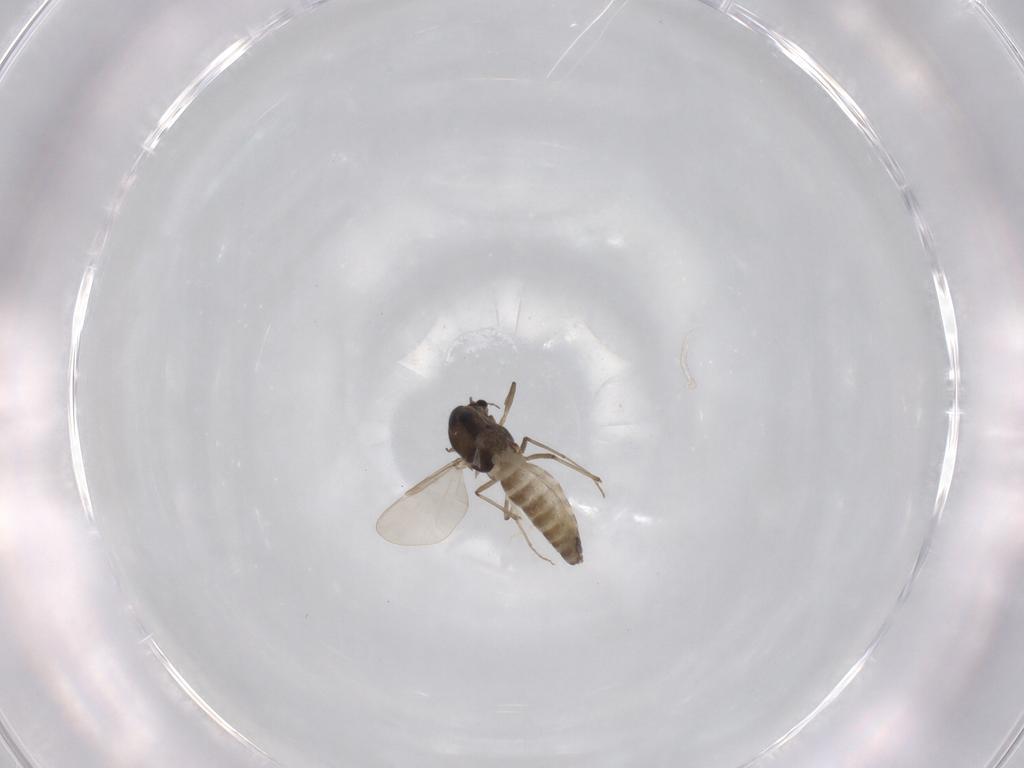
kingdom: Animalia
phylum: Arthropoda
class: Insecta
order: Diptera
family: Chironomidae
